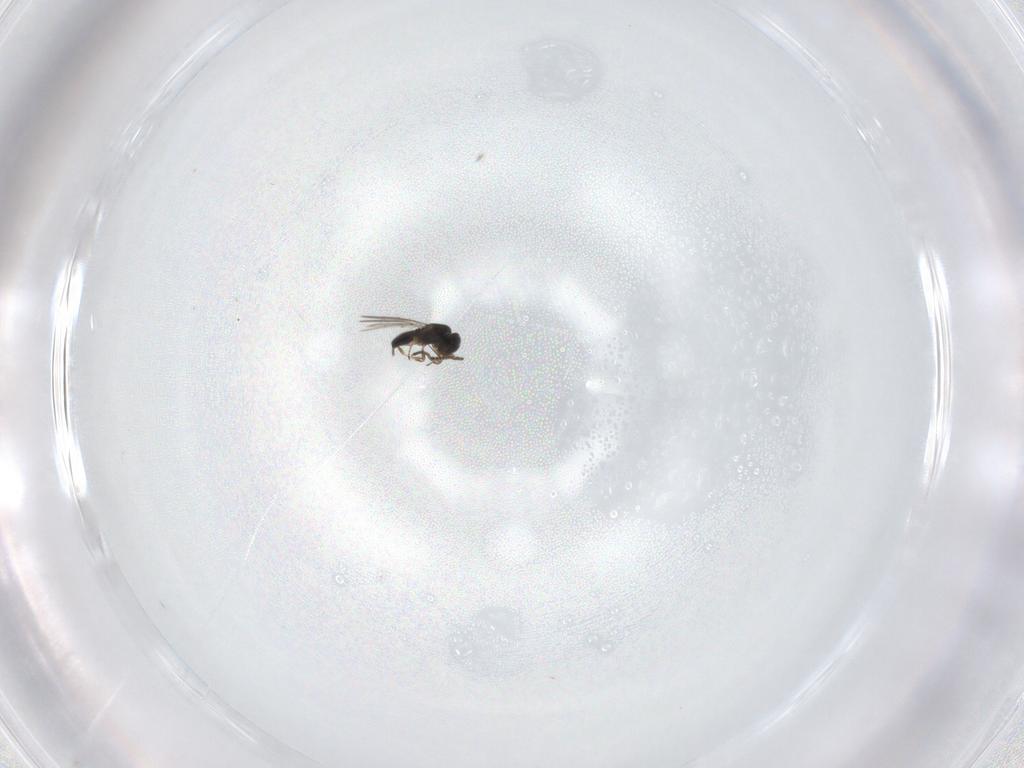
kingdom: Animalia
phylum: Arthropoda
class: Insecta
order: Hymenoptera
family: Scelionidae
